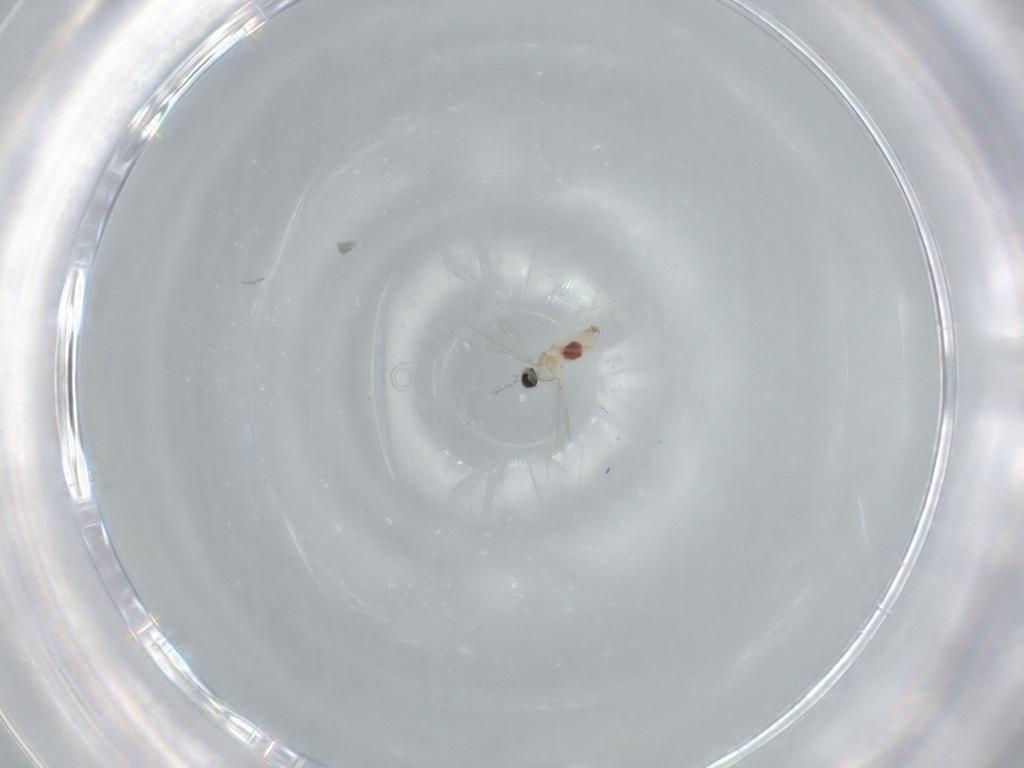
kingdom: Animalia
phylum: Arthropoda
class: Insecta
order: Diptera
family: Cecidomyiidae
